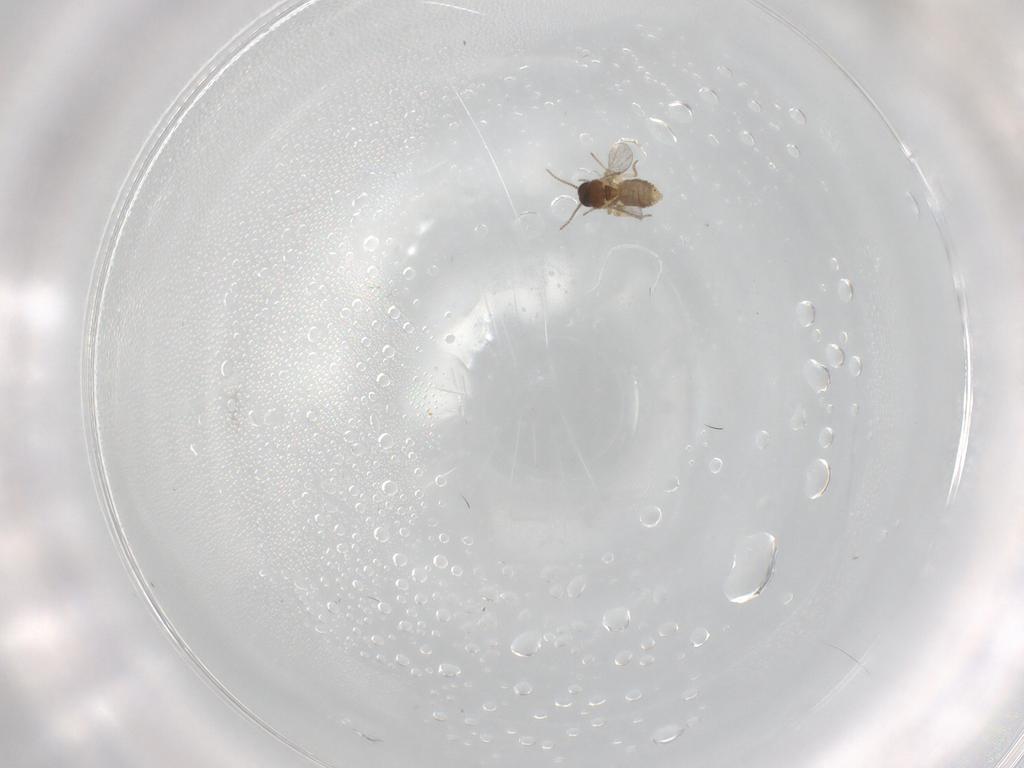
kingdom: Animalia
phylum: Arthropoda
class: Insecta
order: Diptera
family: Ceratopogonidae
